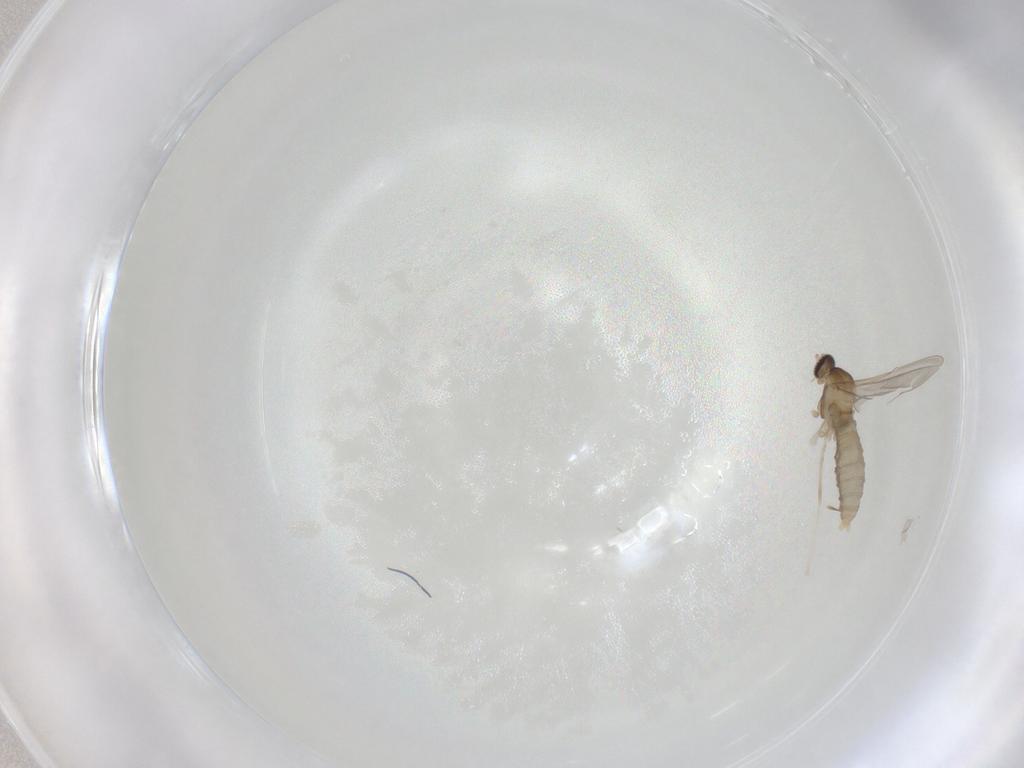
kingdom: Animalia
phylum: Arthropoda
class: Insecta
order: Diptera
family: Cecidomyiidae
